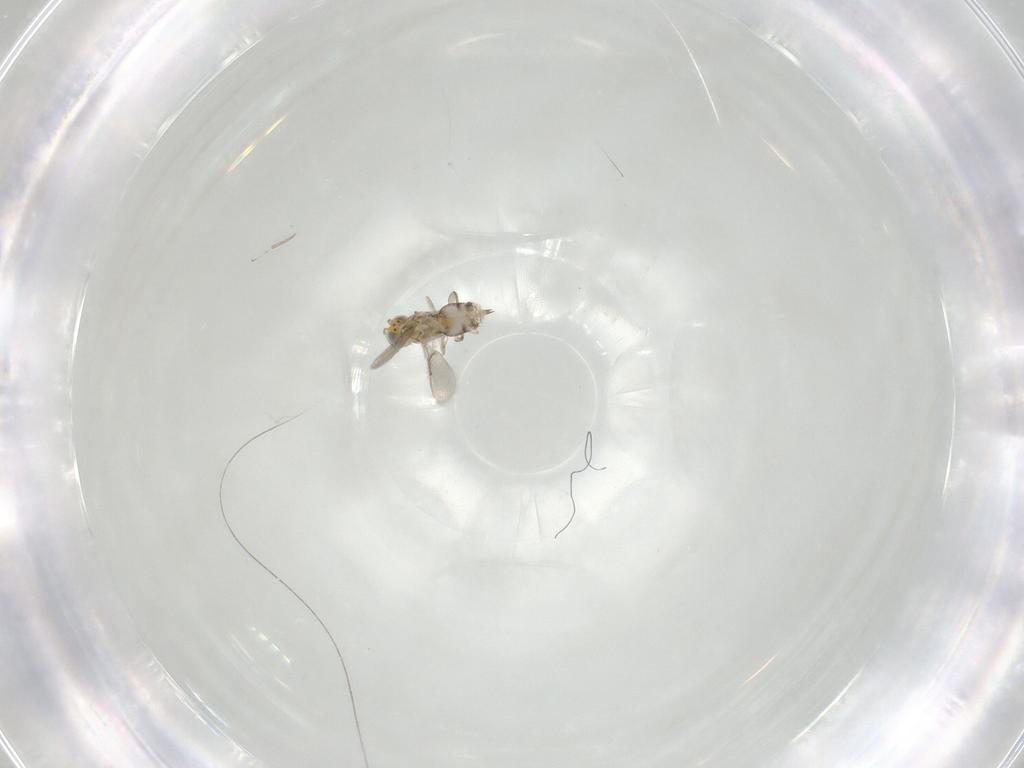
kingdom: Animalia
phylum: Arthropoda
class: Insecta
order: Hymenoptera
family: Aphelinidae
